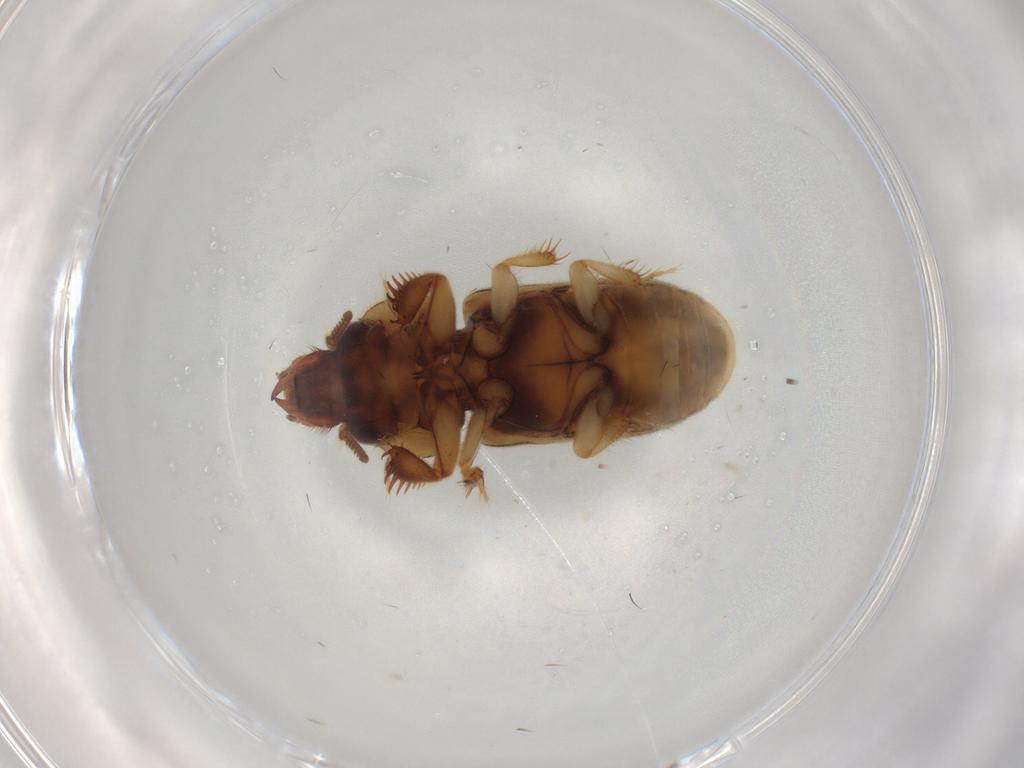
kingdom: Animalia
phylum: Arthropoda
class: Insecta
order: Coleoptera
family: Heteroceridae
